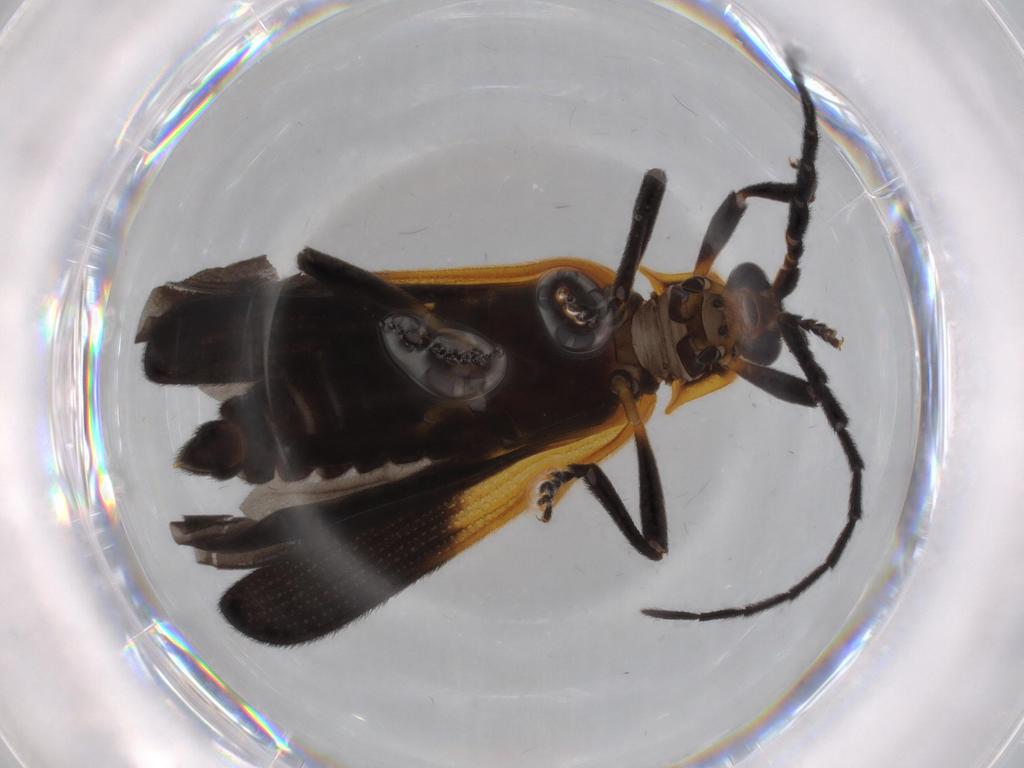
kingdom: Animalia
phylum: Arthropoda
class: Insecta
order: Coleoptera
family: Lycidae
